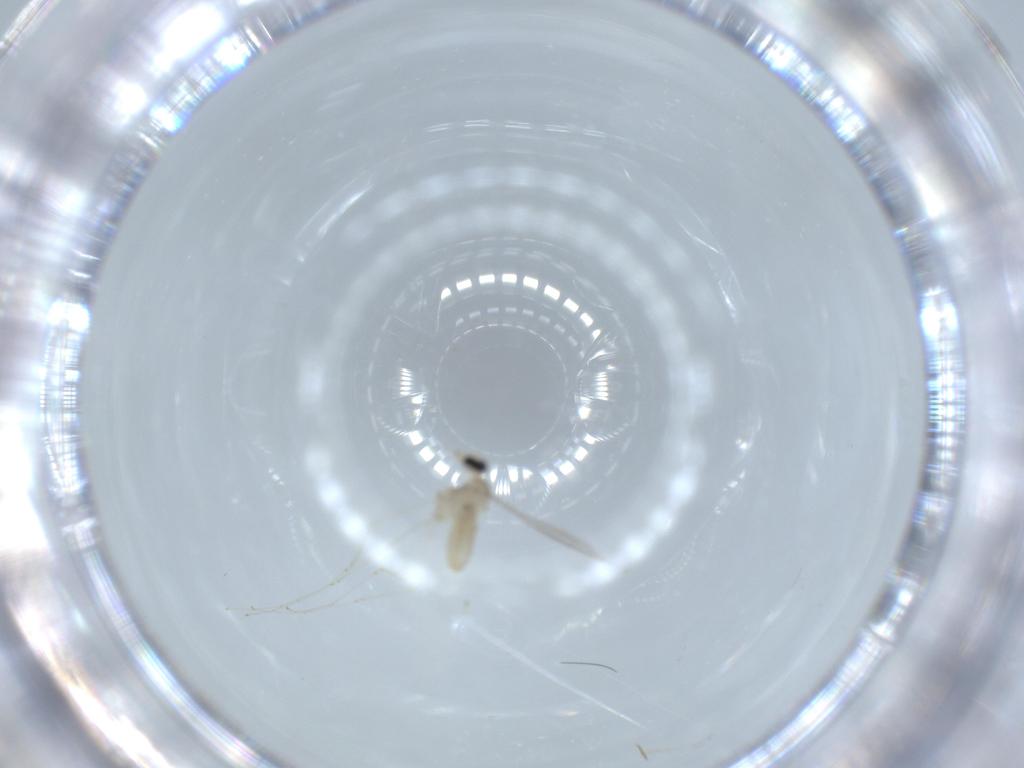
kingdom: Animalia
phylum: Arthropoda
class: Insecta
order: Diptera
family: Cecidomyiidae
